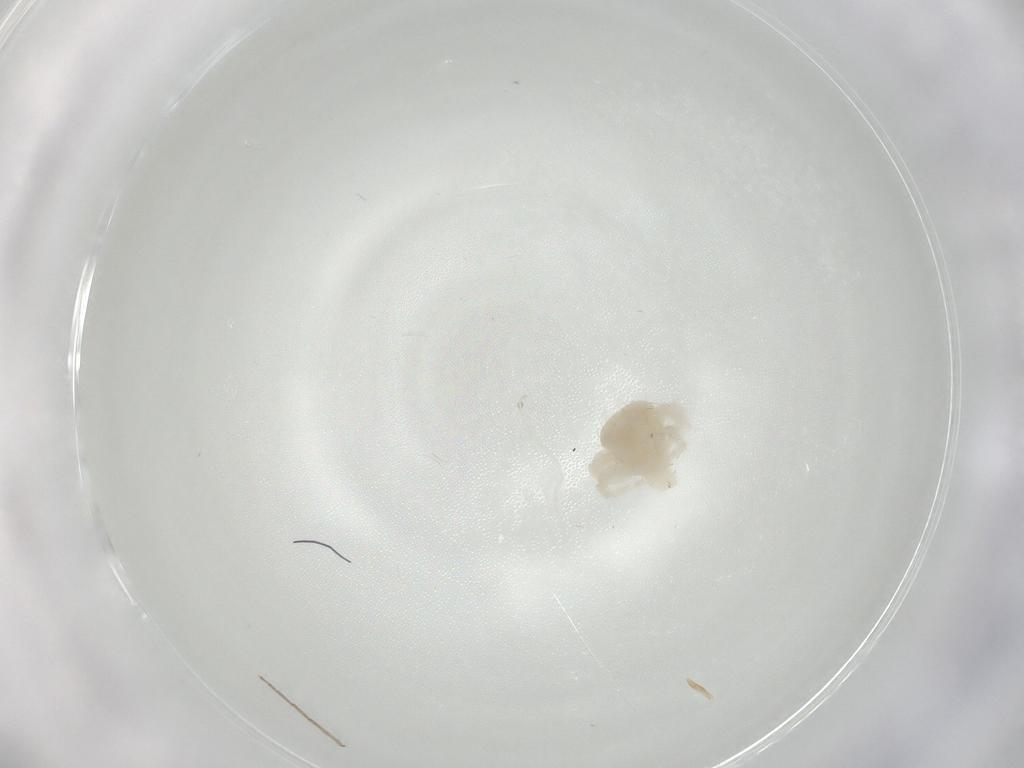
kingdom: Animalia
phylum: Arthropoda
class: Arachnida
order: Trombidiformes
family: Anystidae
